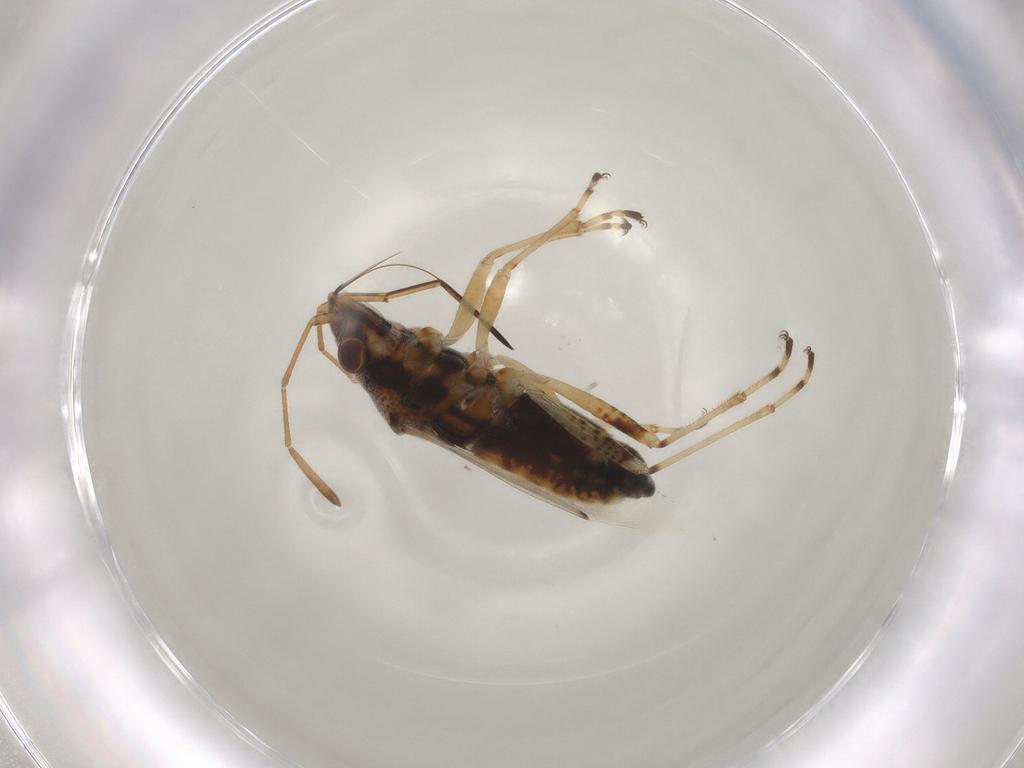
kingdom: Animalia
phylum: Arthropoda
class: Insecta
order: Hemiptera
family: Lygaeidae
